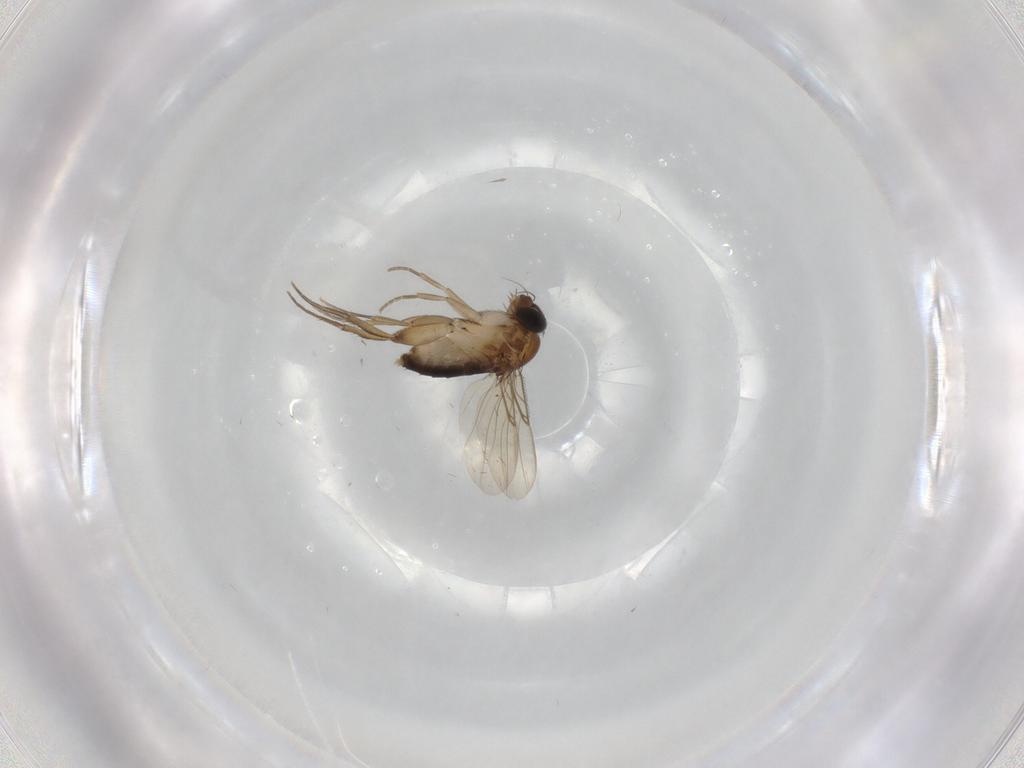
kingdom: Animalia
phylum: Arthropoda
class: Insecta
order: Diptera
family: Phoridae
